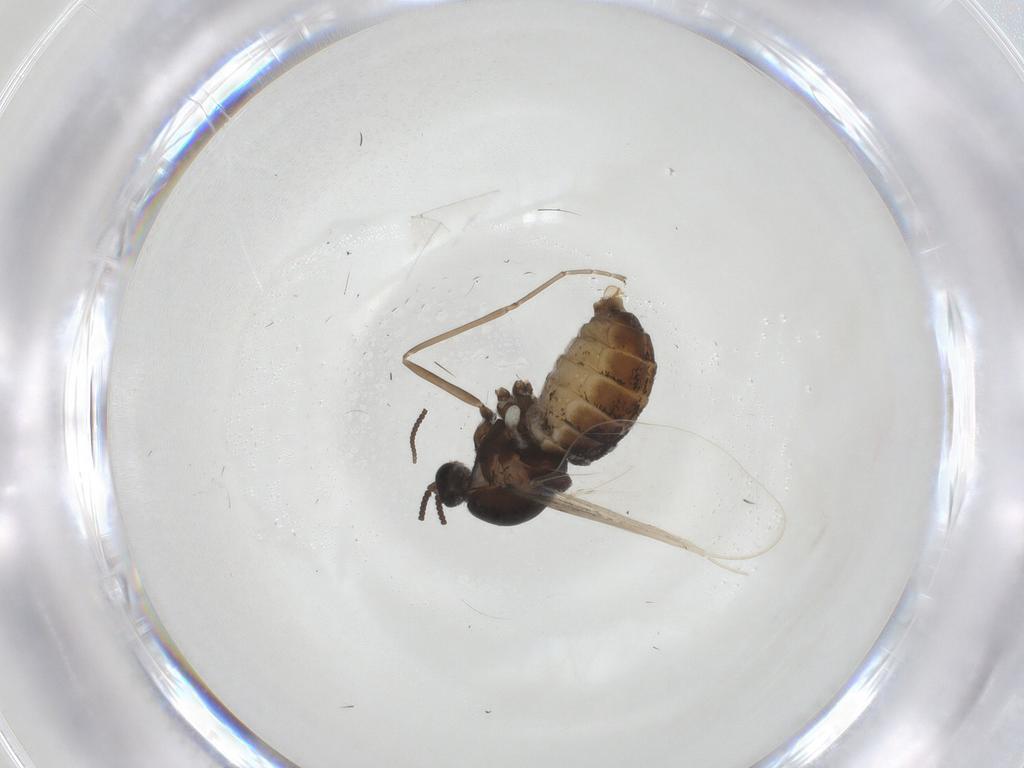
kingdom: Animalia
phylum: Arthropoda
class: Insecta
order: Diptera
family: Cecidomyiidae
